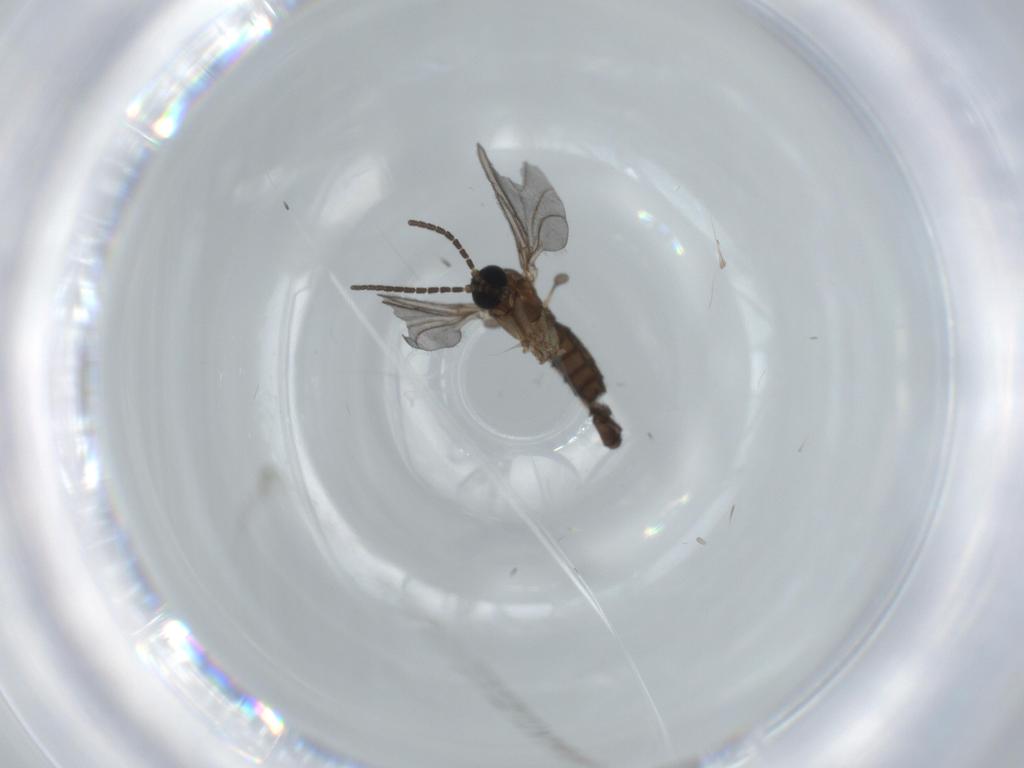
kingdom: Animalia
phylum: Arthropoda
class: Insecta
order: Diptera
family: Sciaridae
